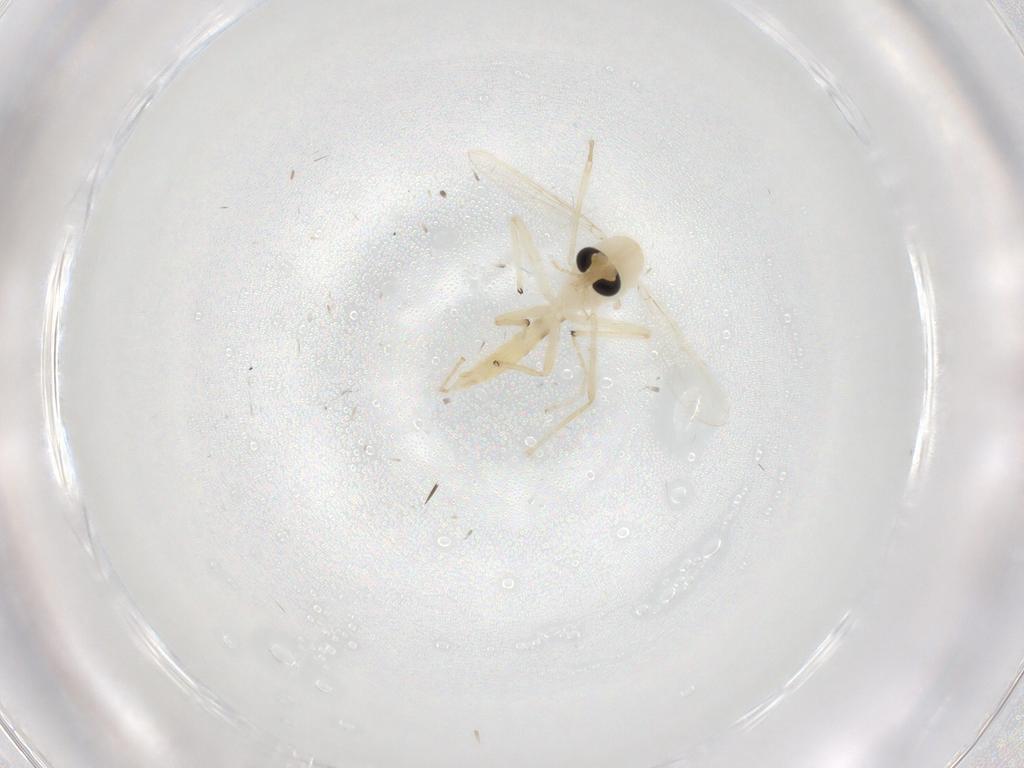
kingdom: Animalia
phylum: Arthropoda
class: Insecta
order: Diptera
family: Chironomidae
